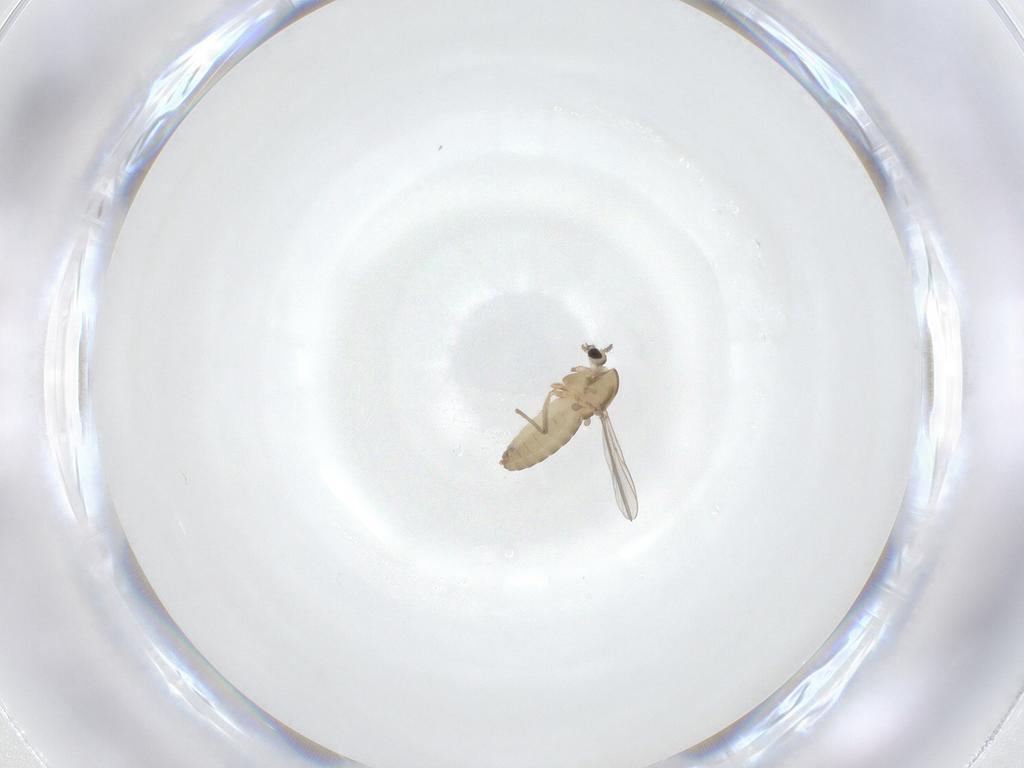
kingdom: Animalia
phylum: Arthropoda
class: Insecta
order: Diptera
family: Chironomidae
